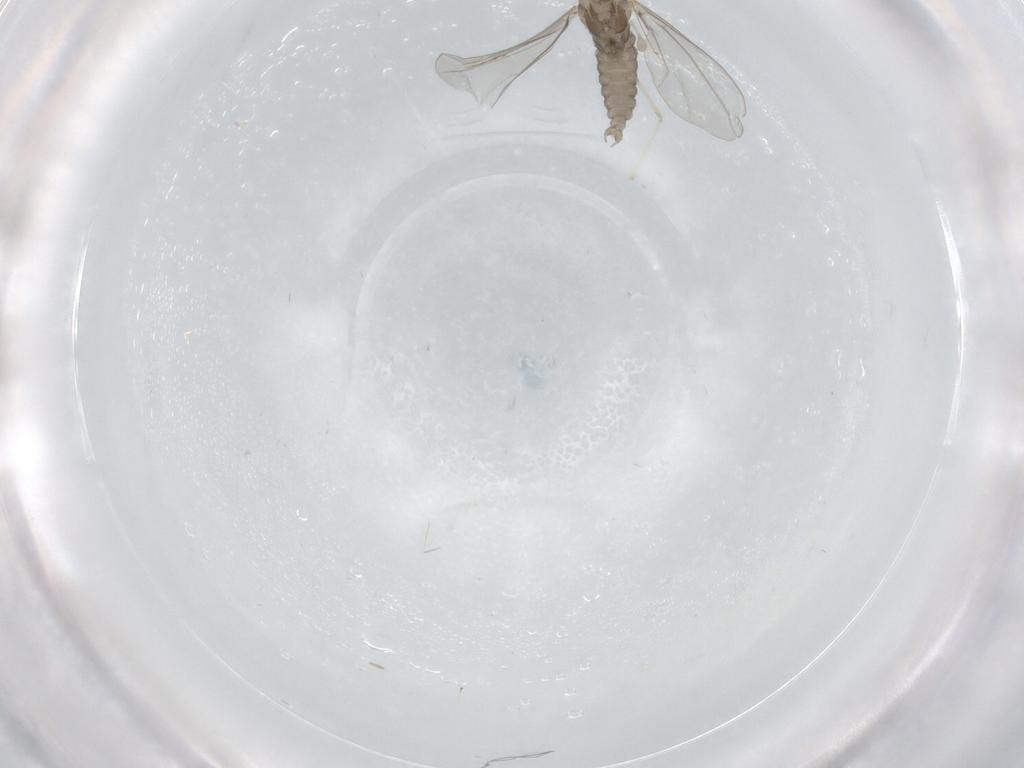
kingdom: Animalia
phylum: Arthropoda
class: Insecta
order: Diptera
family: Cecidomyiidae
